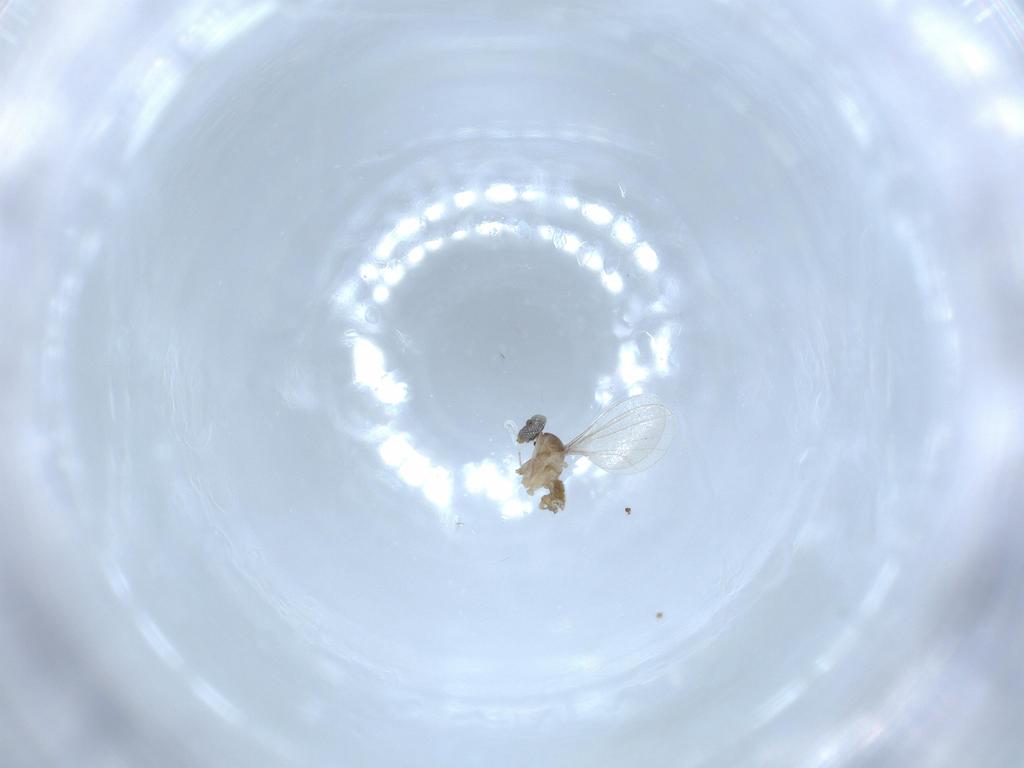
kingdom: Animalia
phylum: Arthropoda
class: Insecta
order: Diptera
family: Cecidomyiidae
